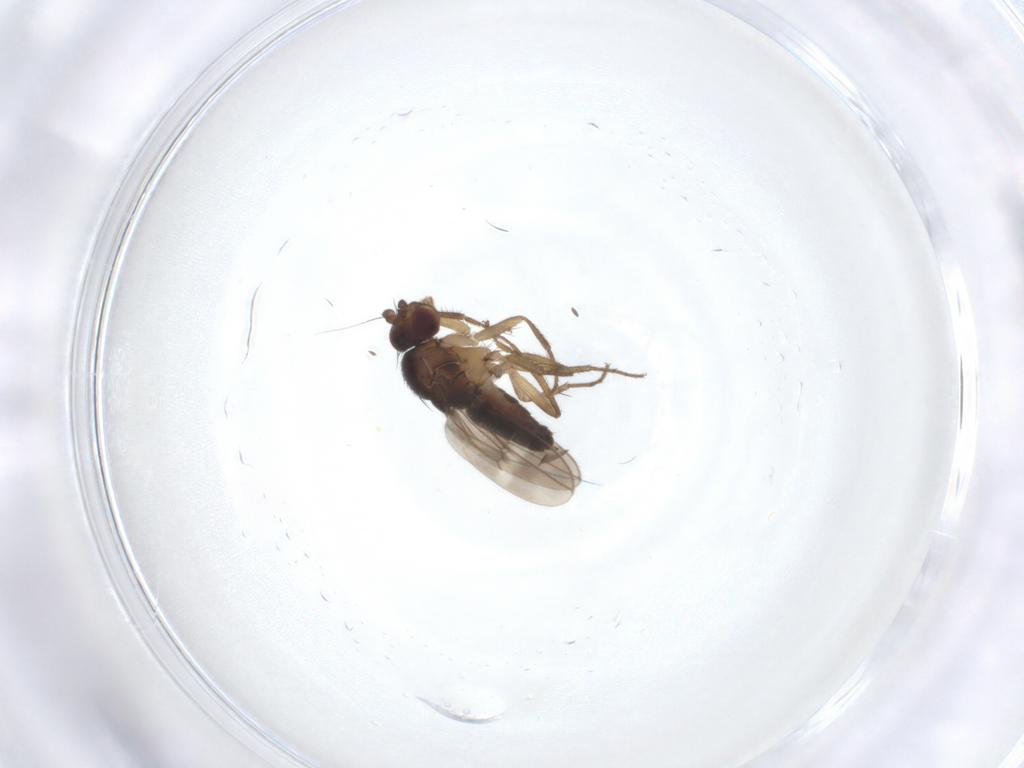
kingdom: Animalia
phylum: Arthropoda
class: Insecta
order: Diptera
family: Sphaeroceridae
